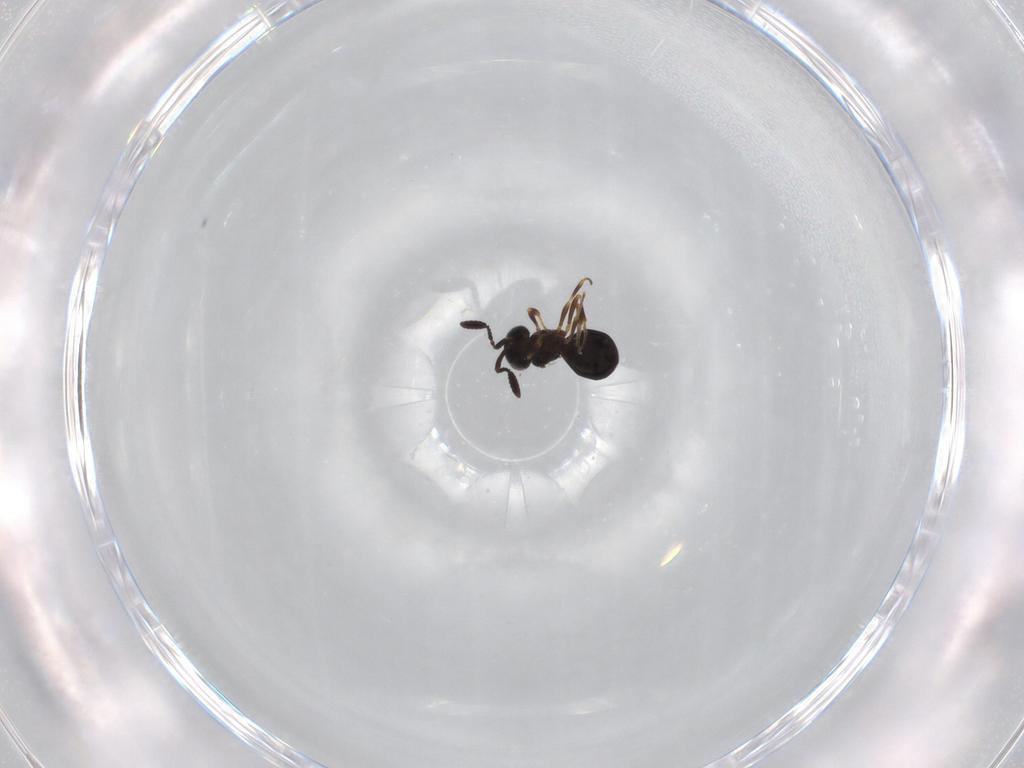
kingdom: Animalia
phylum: Arthropoda
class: Insecta
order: Hymenoptera
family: Scelionidae
